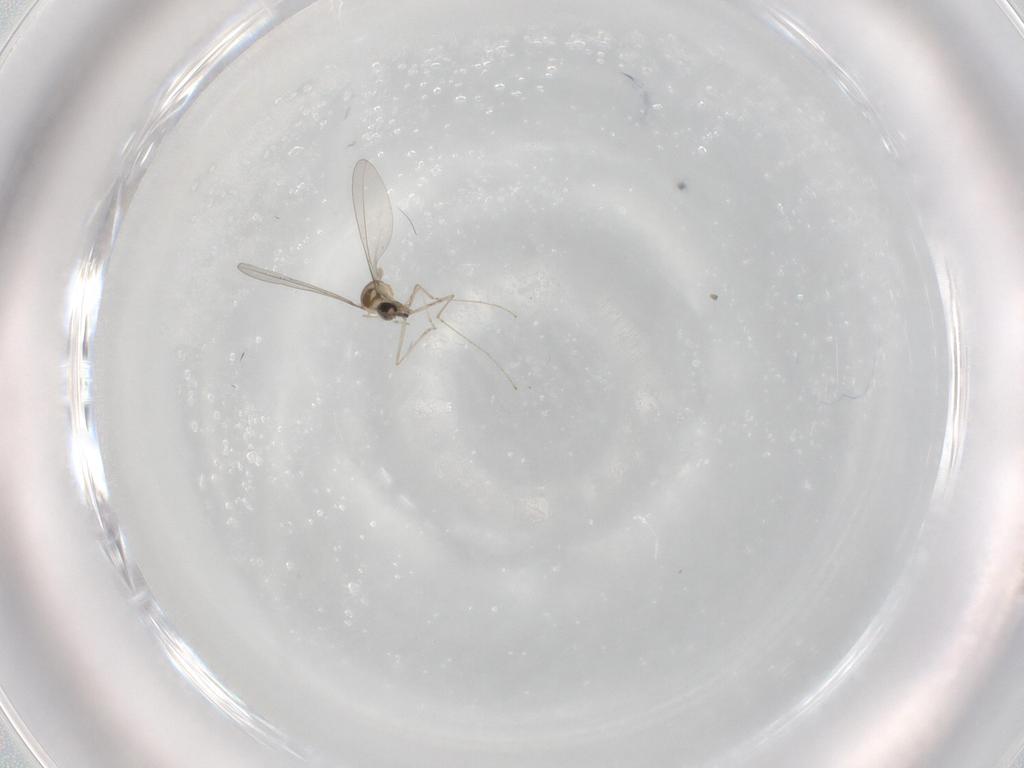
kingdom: Animalia
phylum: Arthropoda
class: Insecta
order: Diptera
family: Cecidomyiidae
